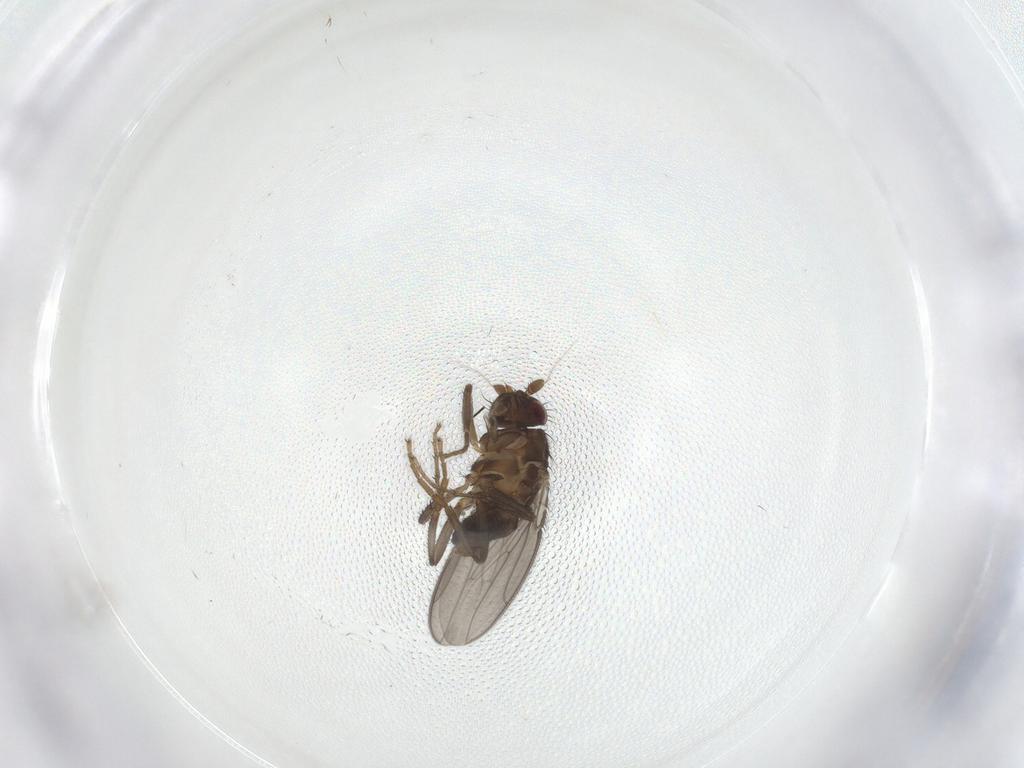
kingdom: Animalia
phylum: Arthropoda
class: Insecta
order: Diptera
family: Sphaeroceridae
